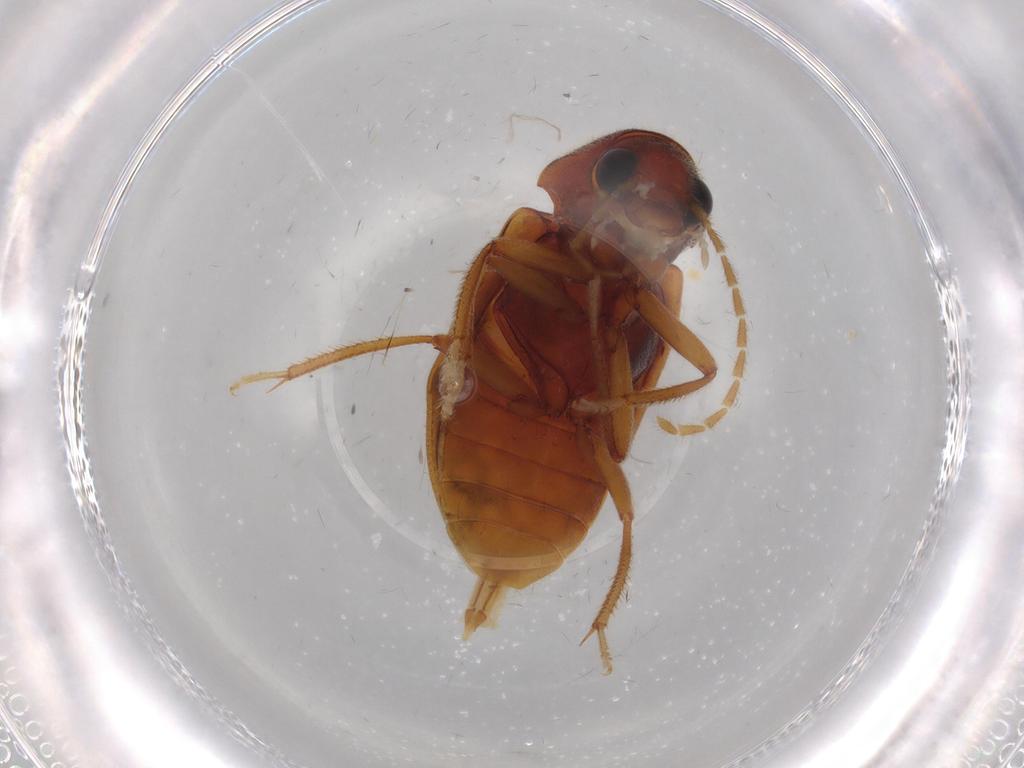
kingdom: Animalia
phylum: Arthropoda
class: Insecta
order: Coleoptera
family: Ptilodactylidae
